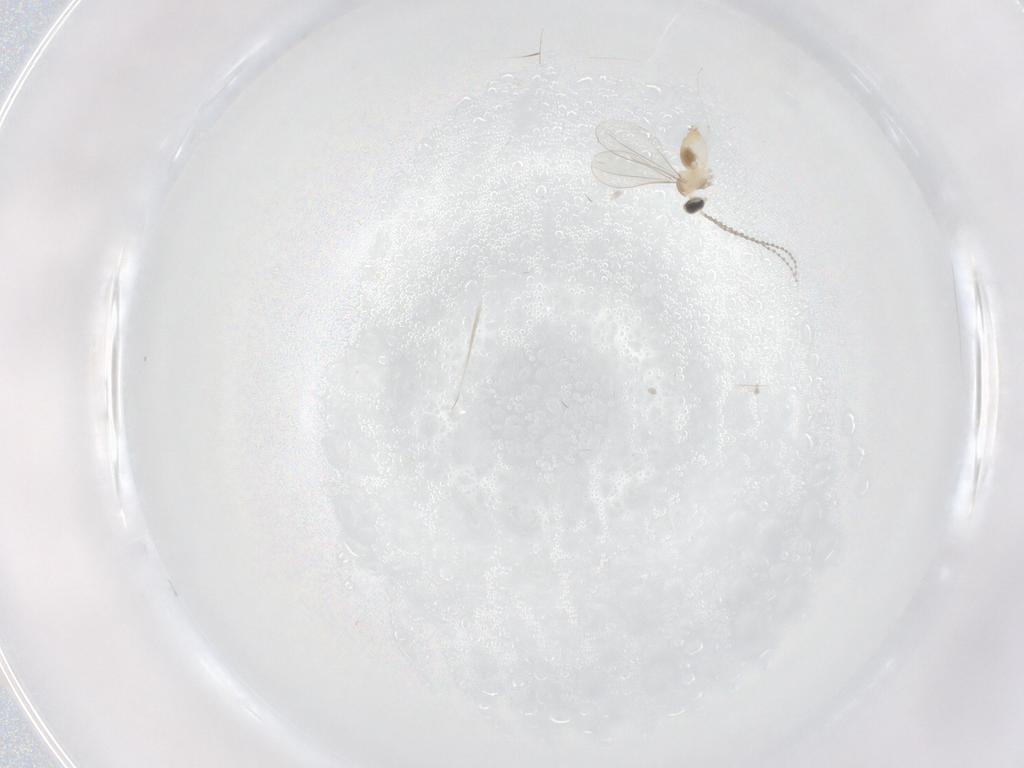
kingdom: Animalia
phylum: Arthropoda
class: Insecta
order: Diptera
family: Cecidomyiidae
